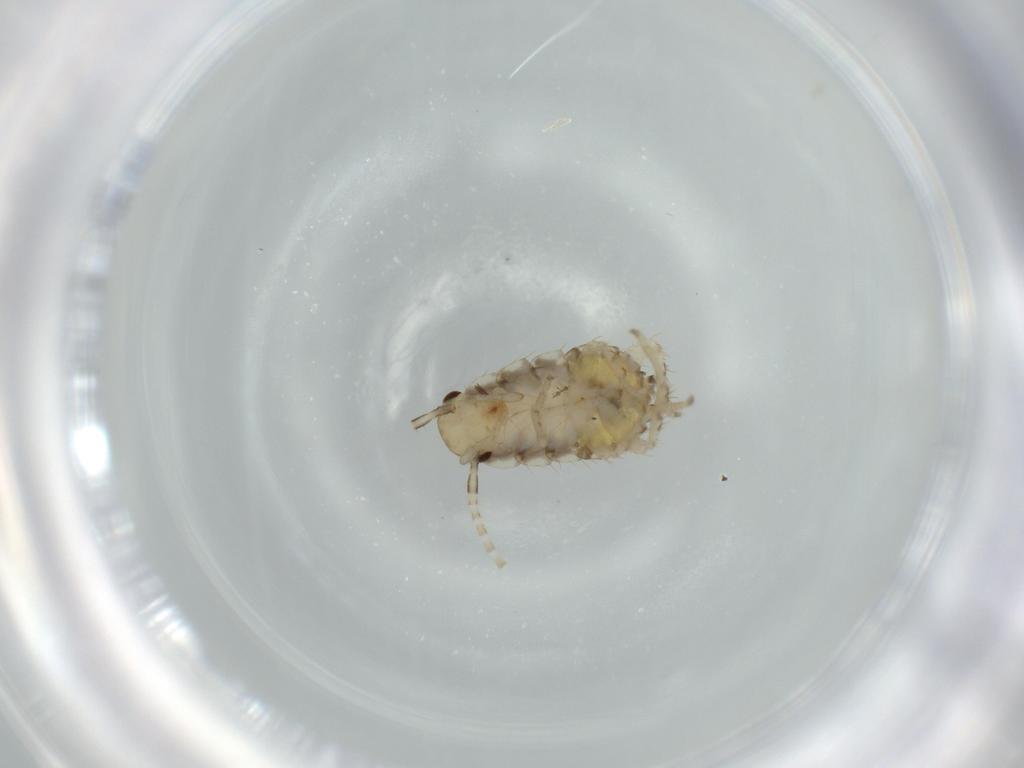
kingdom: Animalia
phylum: Arthropoda
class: Insecta
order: Blattodea
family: Ectobiidae
